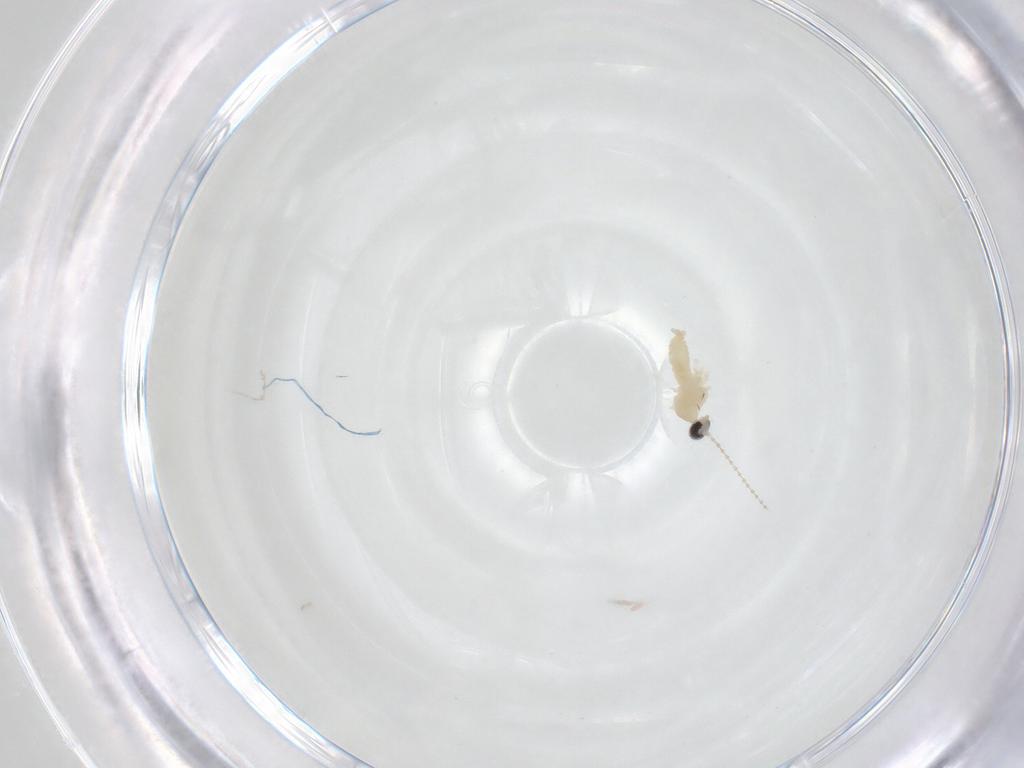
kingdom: Animalia
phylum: Arthropoda
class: Insecta
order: Diptera
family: Cecidomyiidae
